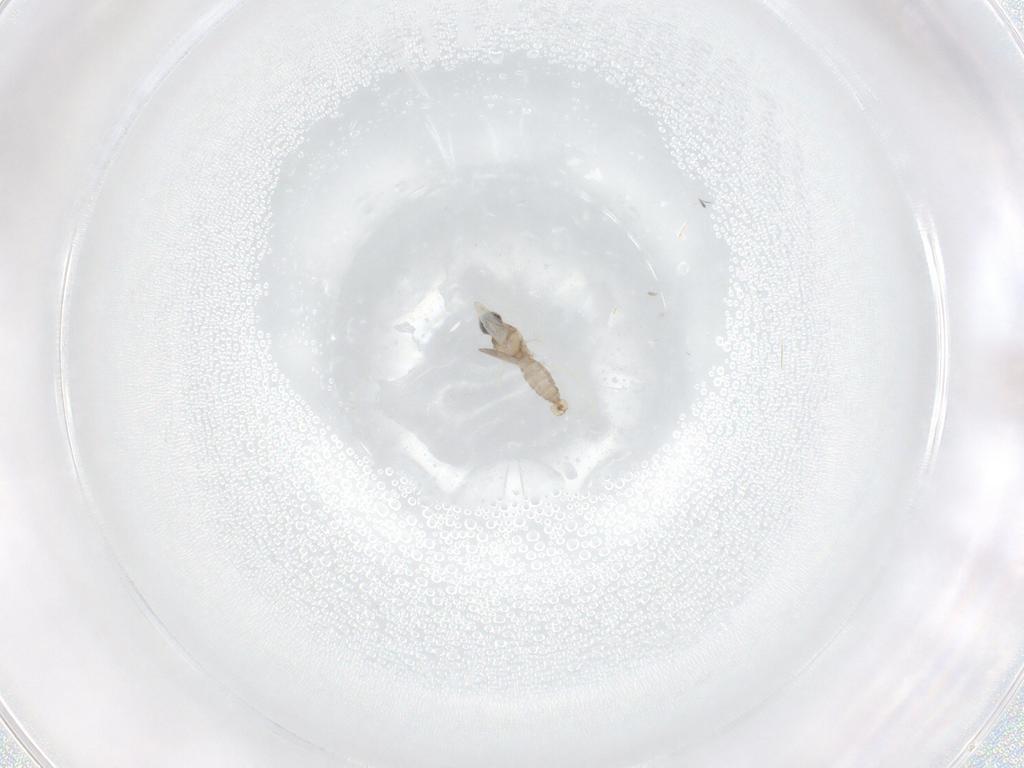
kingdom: Animalia
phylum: Arthropoda
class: Insecta
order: Diptera
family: Cecidomyiidae
